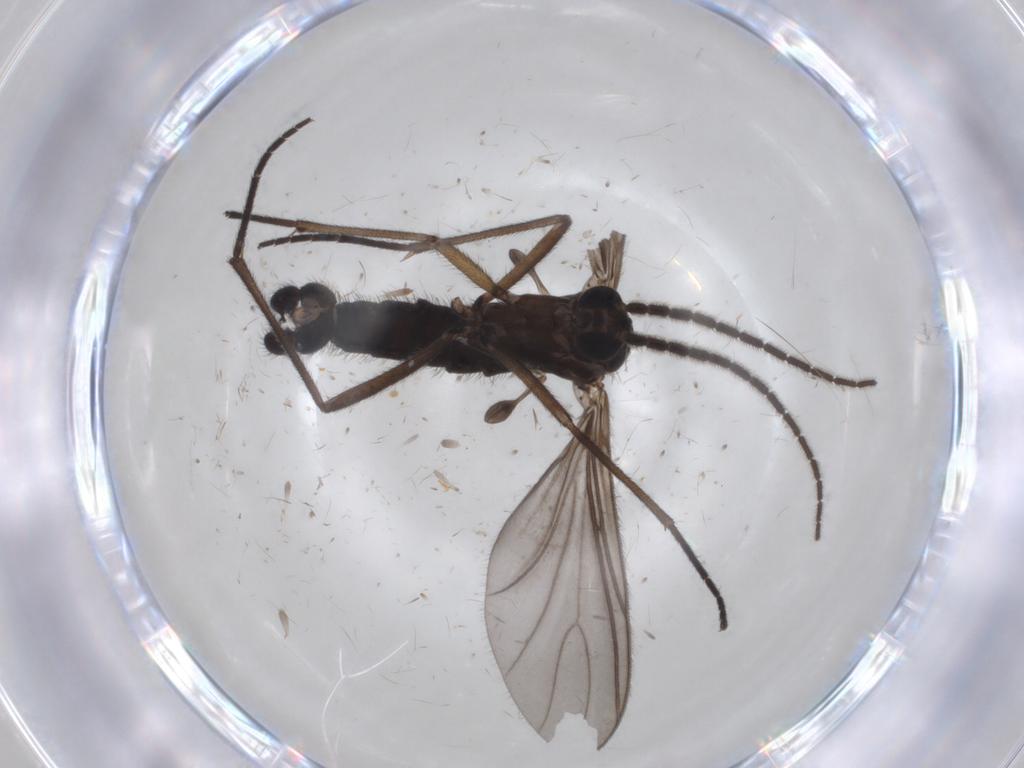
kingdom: Animalia
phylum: Arthropoda
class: Insecta
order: Diptera
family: Sciaridae
